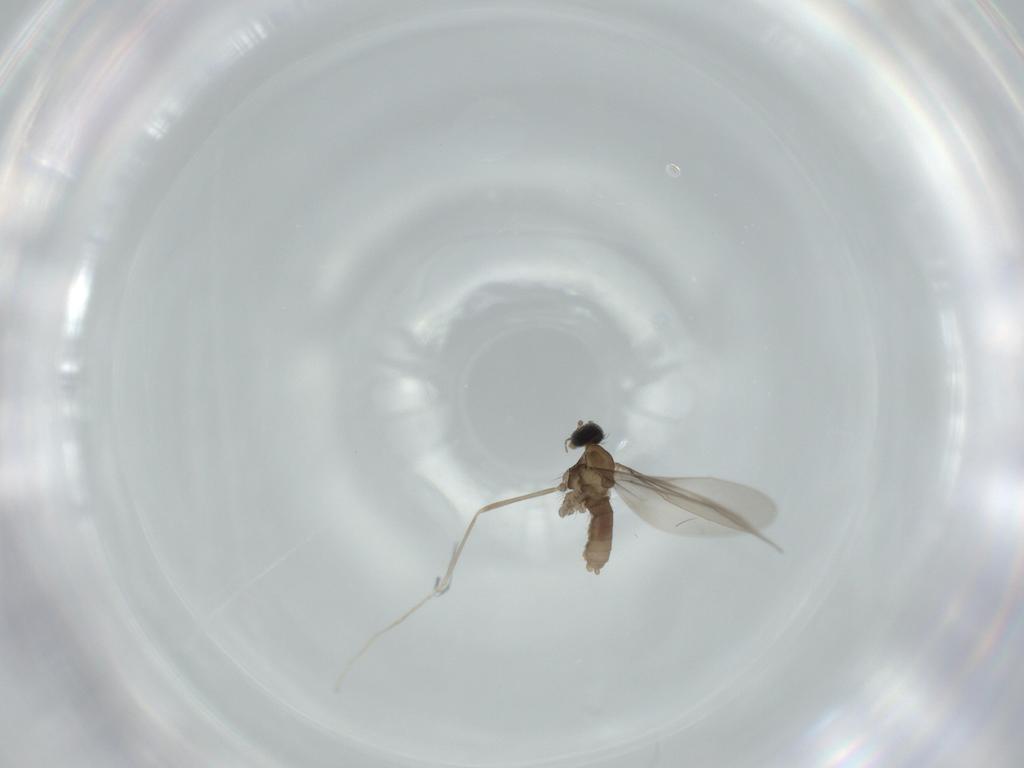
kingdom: Animalia
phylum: Arthropoda
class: Insecta
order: Diptera
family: Cecidomyiidae
